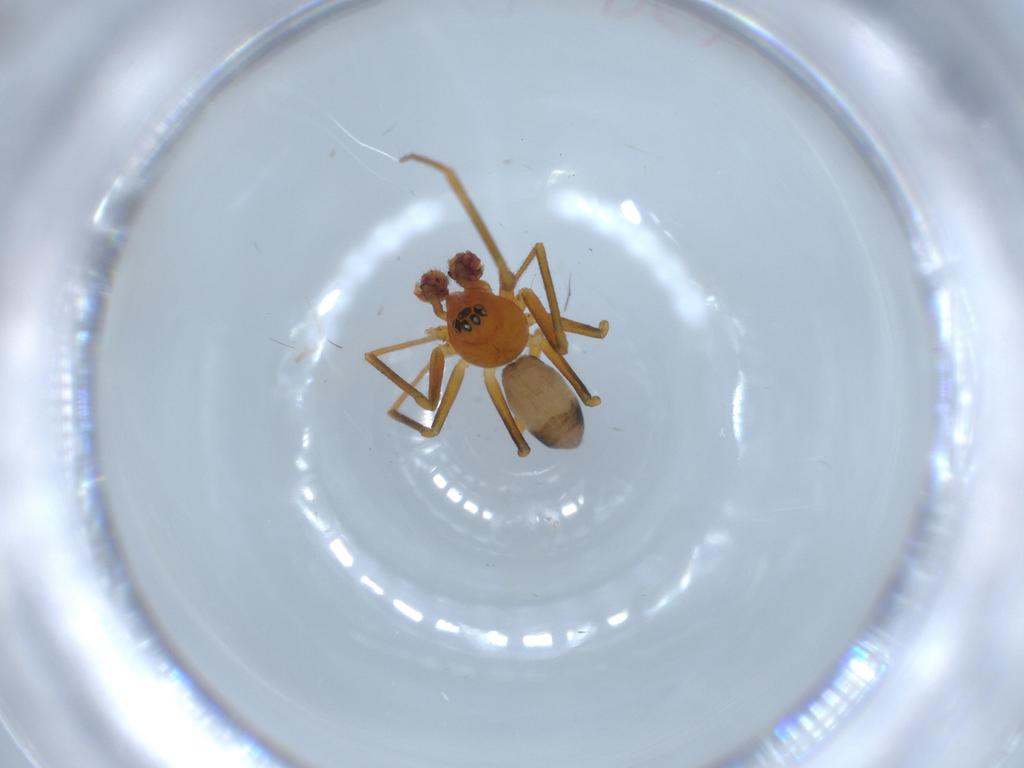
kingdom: Animalia
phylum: Arthropoda
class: Arachnida
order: Araneae
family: Linyphiidae
